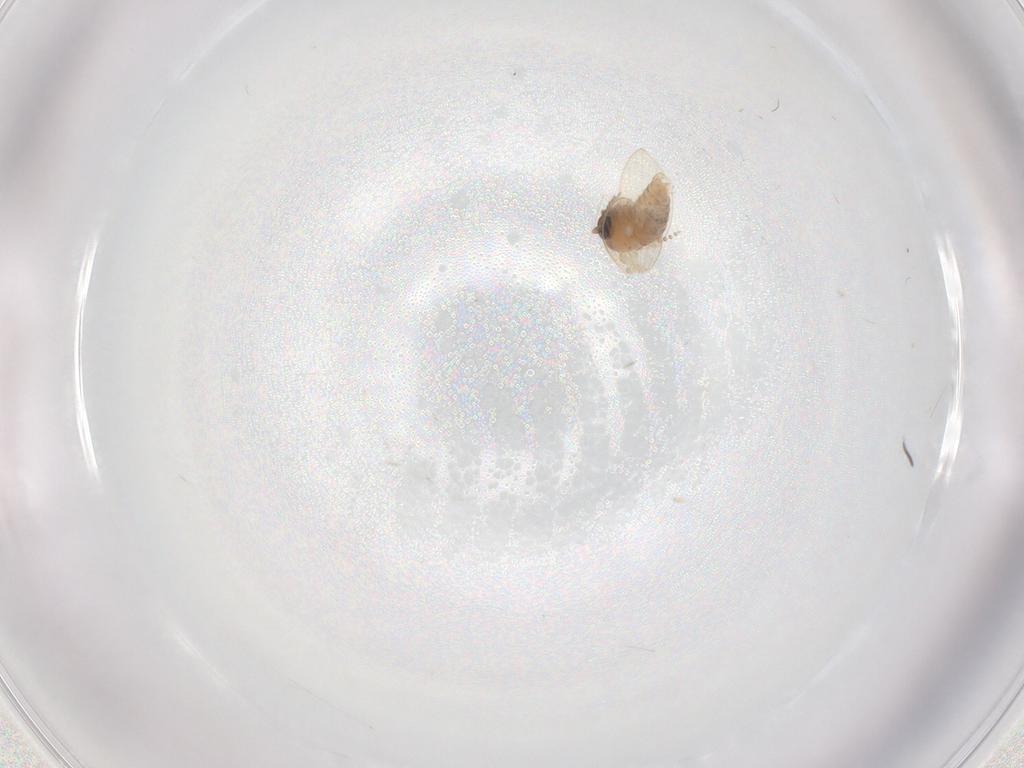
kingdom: Animalia
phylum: Arthropoda
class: Insecta
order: Diptera
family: Psychodidae
